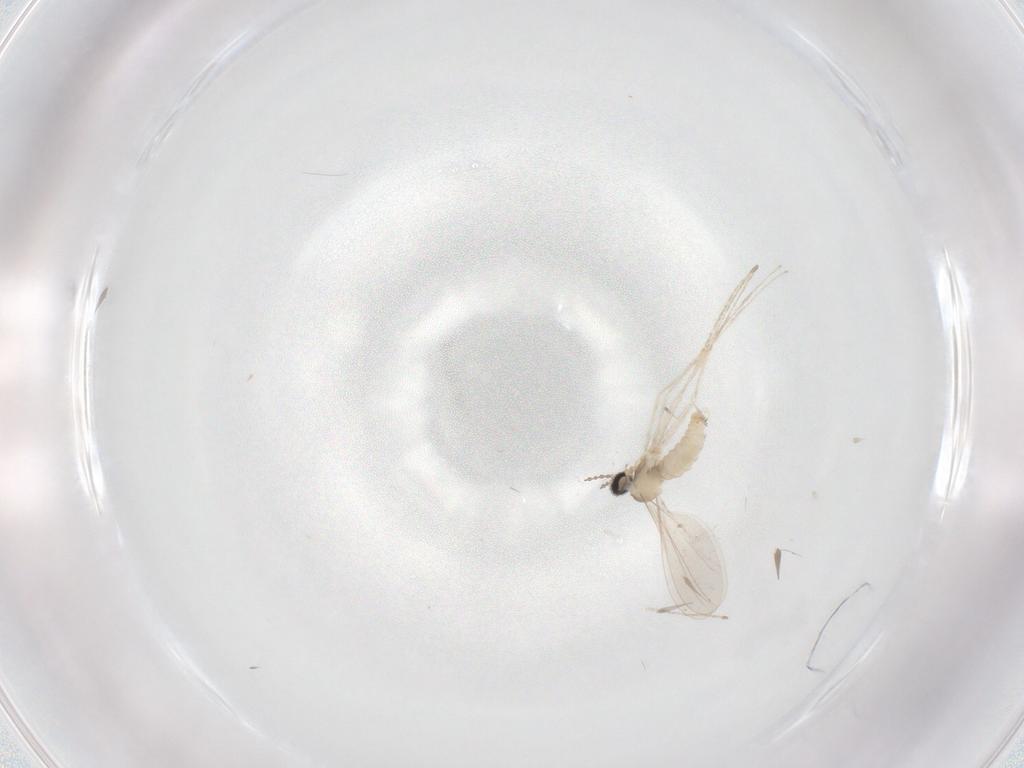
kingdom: Animalia
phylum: Arthropoda
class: Insecta
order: Diptera
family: Cecidomyiidae
